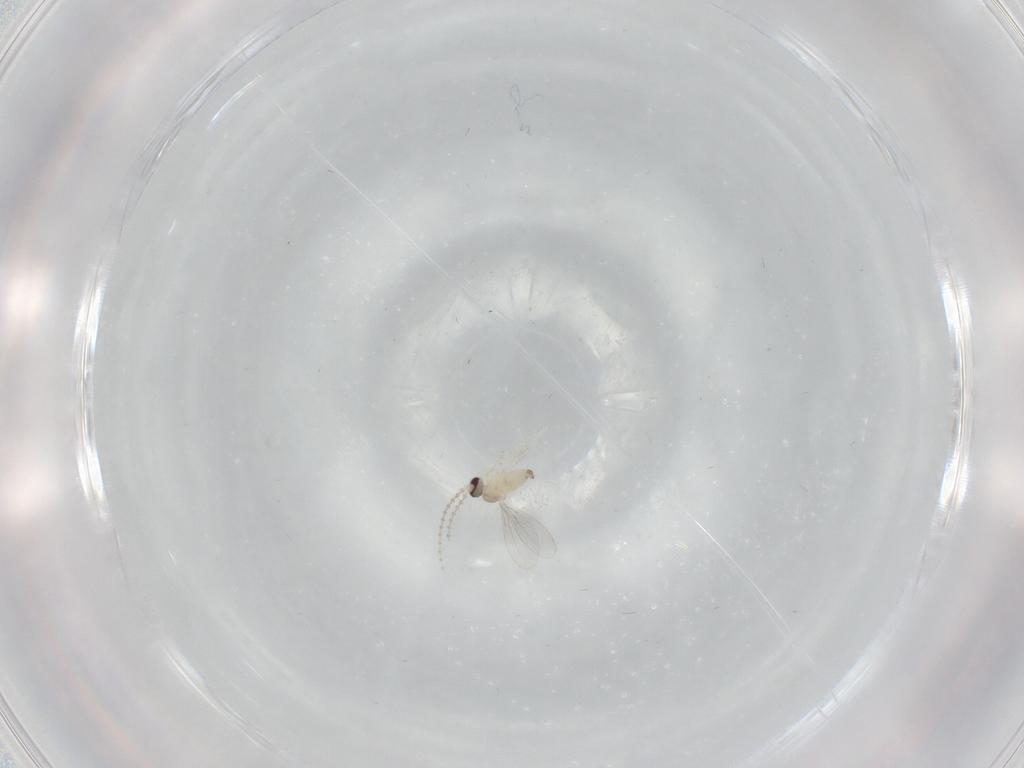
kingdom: Animalia
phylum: Arthropoda
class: Insecta
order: Diptera
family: Cecidomyiidae
